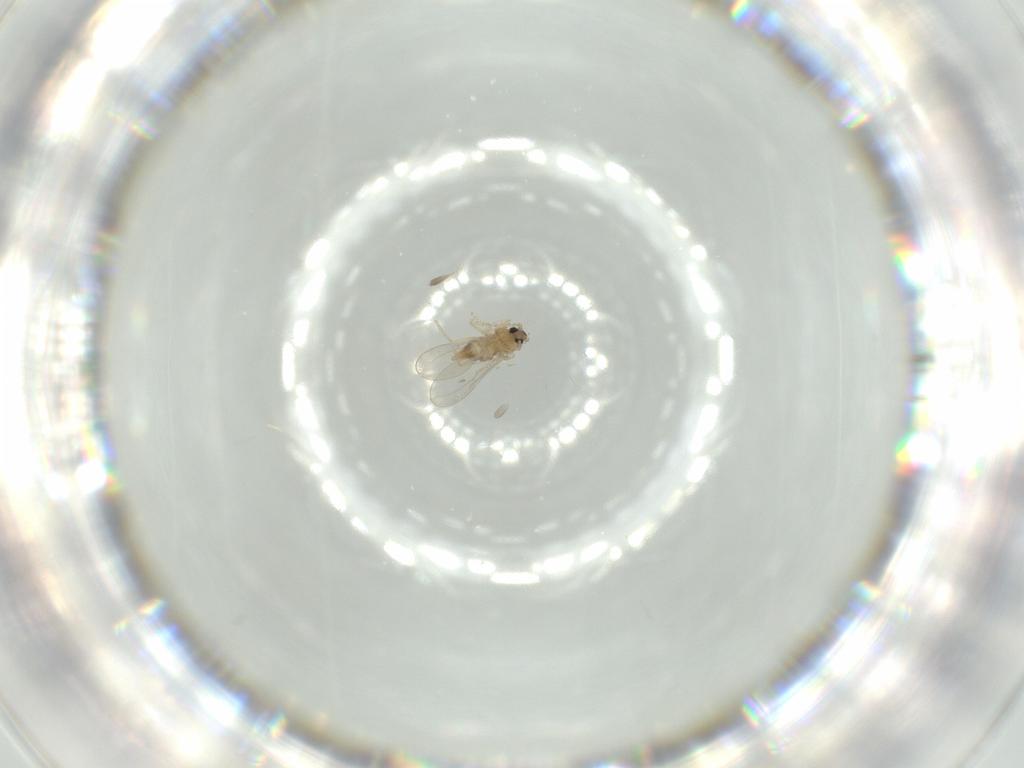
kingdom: Animalia
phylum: Arthropoda
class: Insecta
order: Diptera
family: Cecidomyiidae
